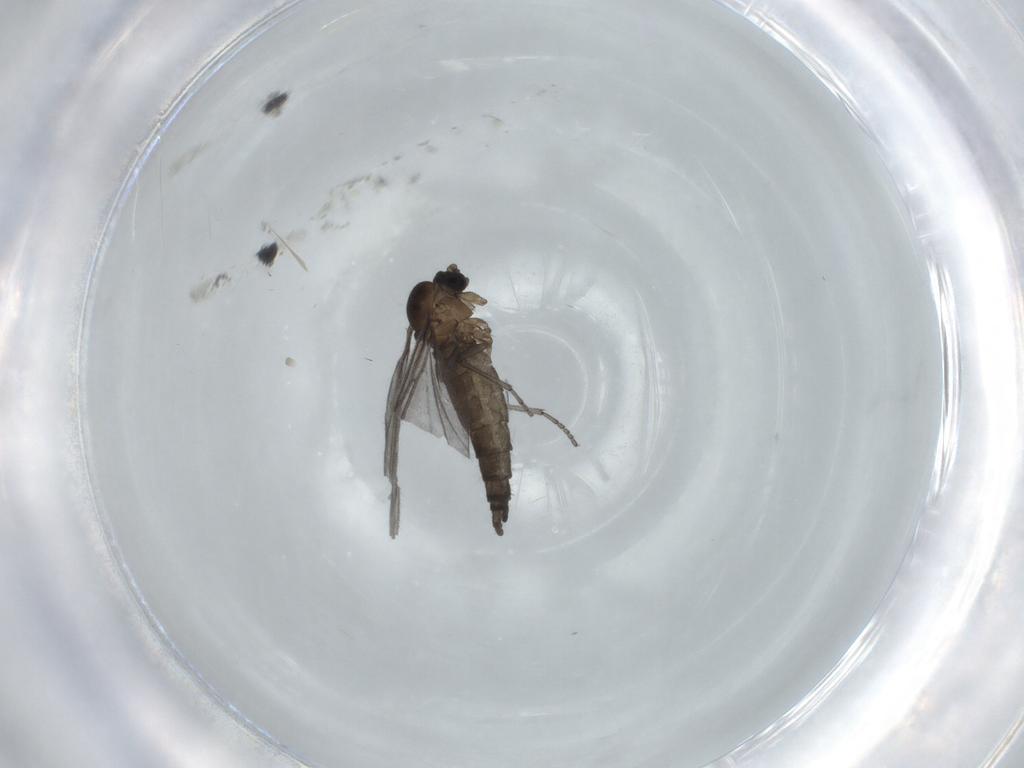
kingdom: Animalia
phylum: Arthropoda
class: Insecta
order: Diptera
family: Sciaridae
